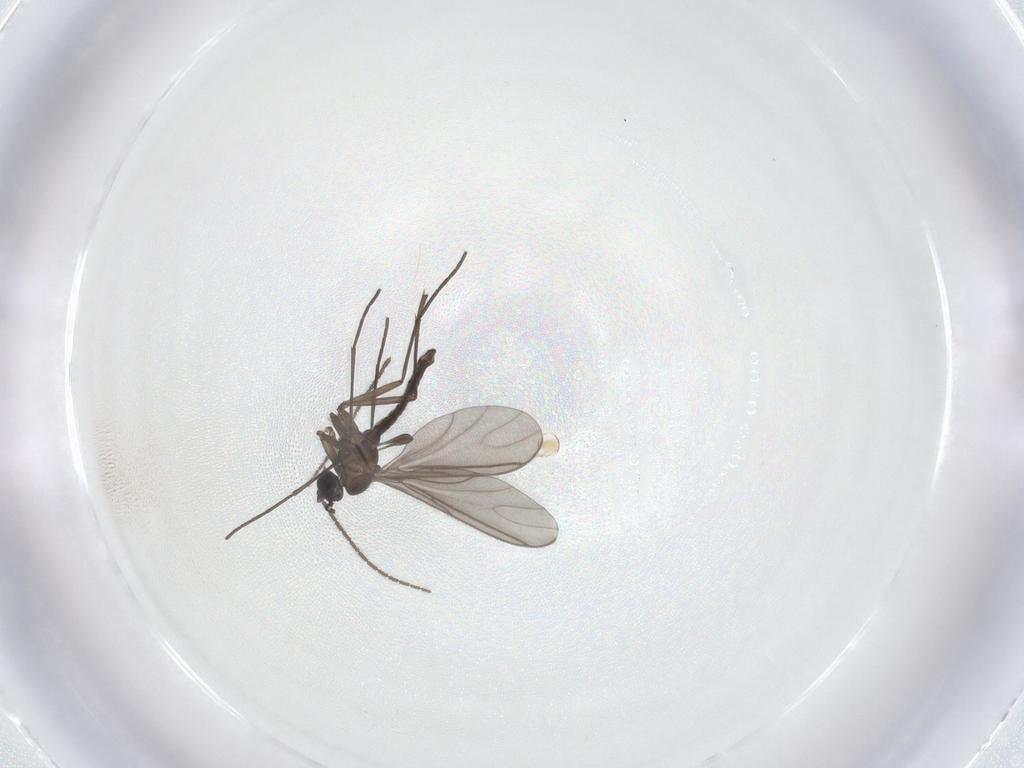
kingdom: Animalia
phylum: Arthropoda
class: Insecta
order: Diptera
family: Sciaridae
